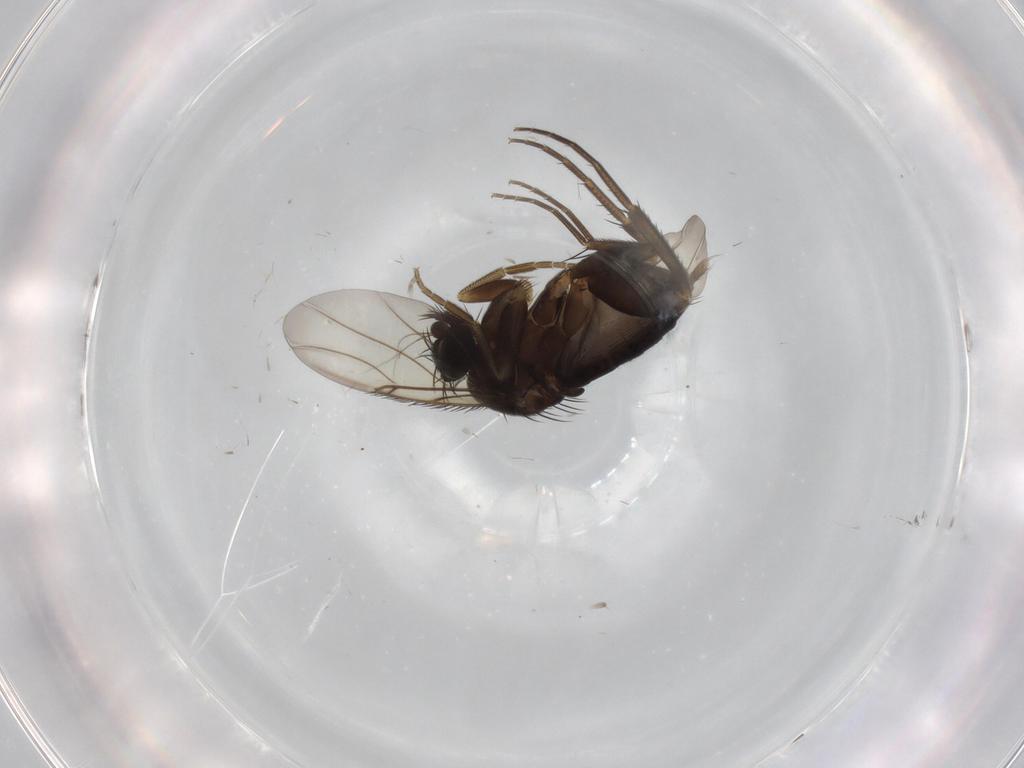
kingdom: Animalia
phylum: Arthropoda
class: Insecta
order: Diptera
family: Phoridae
